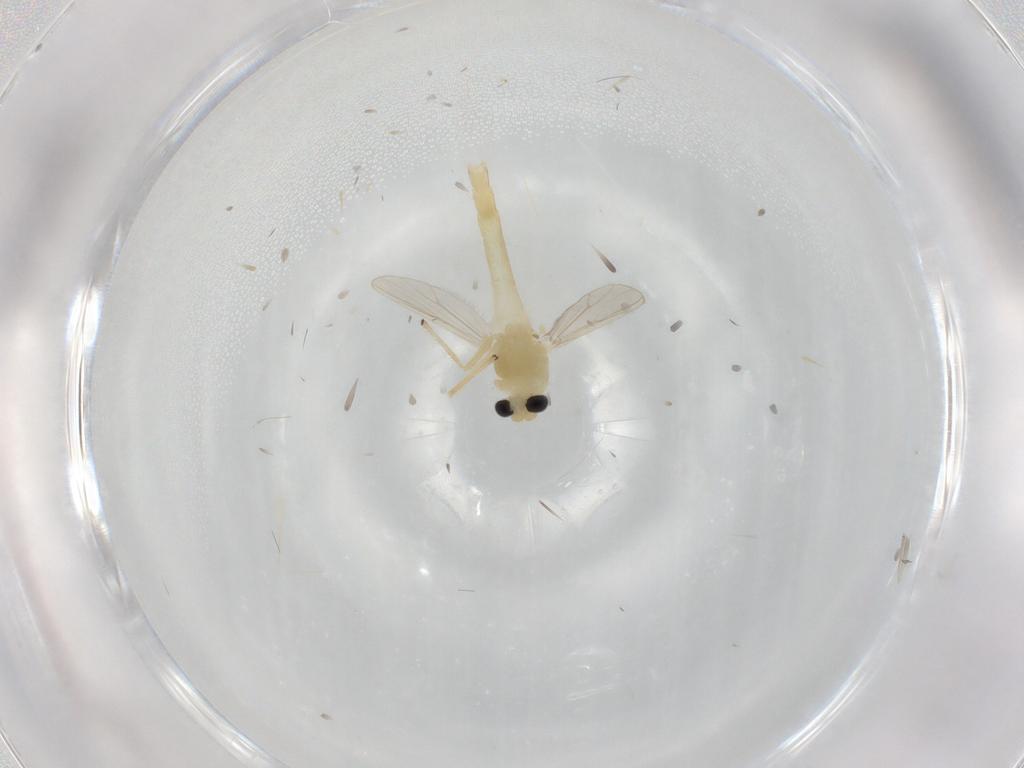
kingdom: Animalia
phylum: Arthropoda
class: Insecta
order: Diptera
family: Chironomidae
